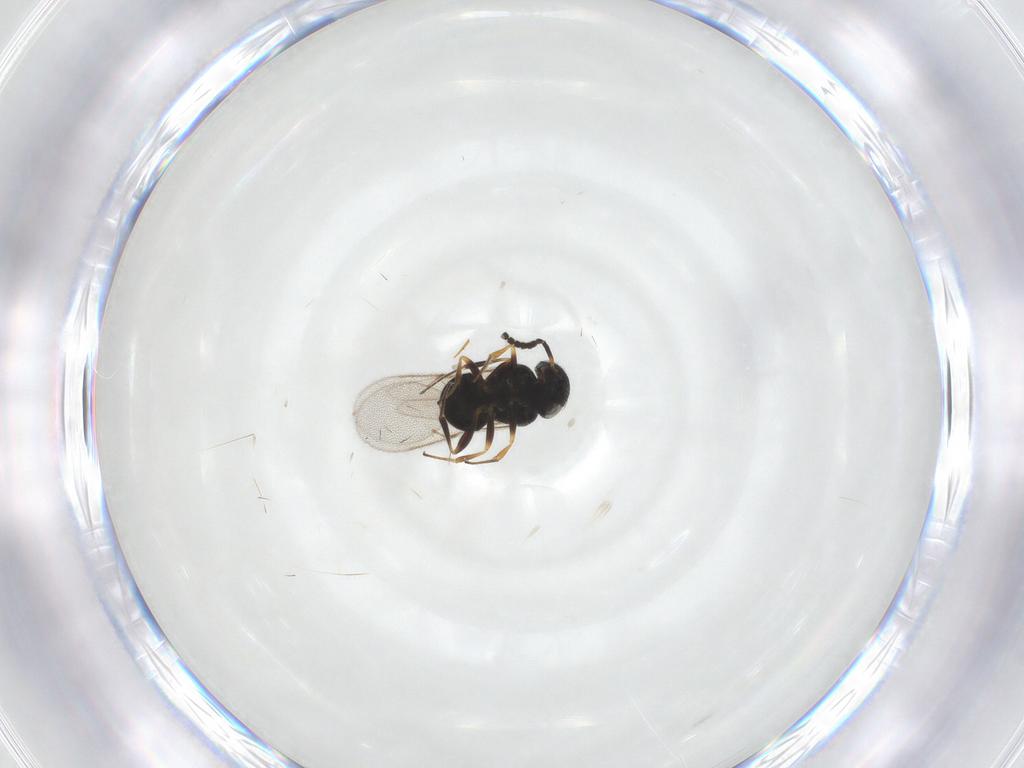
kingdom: Animalia
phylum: Arthropoda
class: Insecta
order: Hymenoptera
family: Scelionidae
